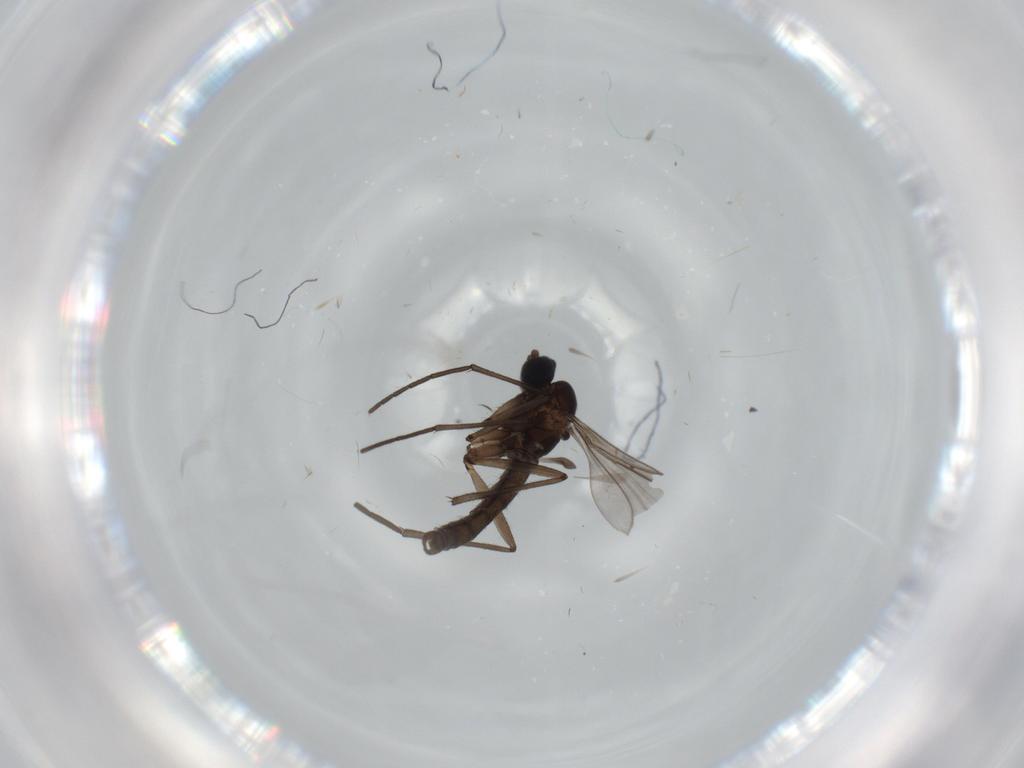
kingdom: Animalia
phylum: Arthropoda
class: Insecta
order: Diptera
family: Sciaridae
